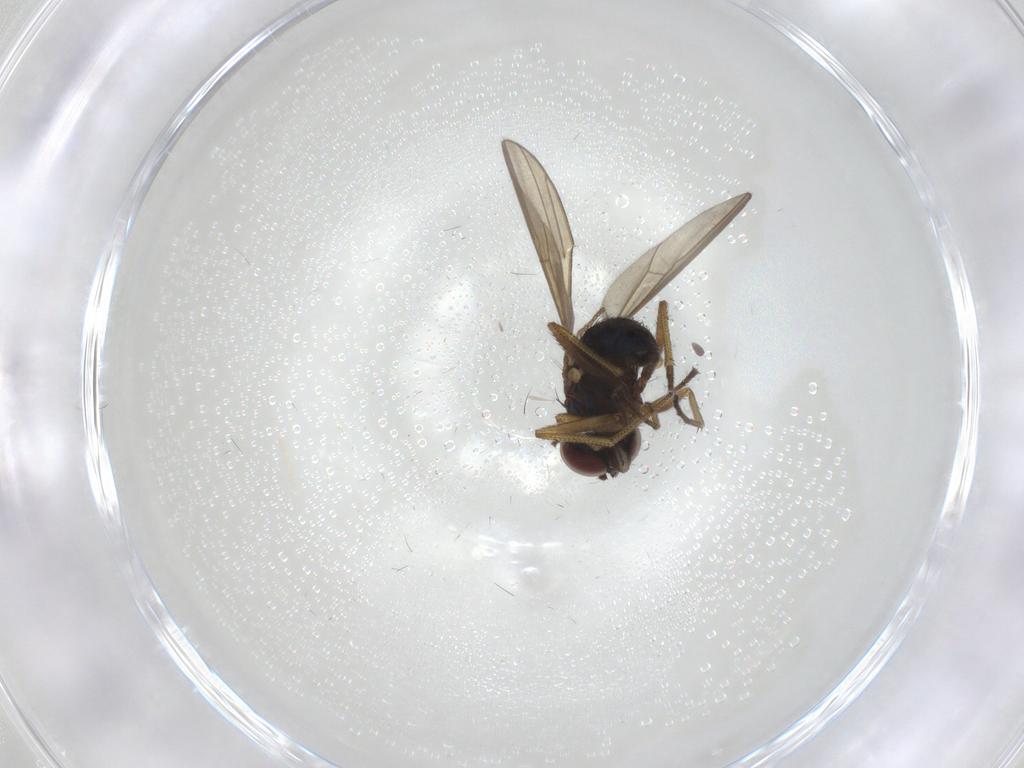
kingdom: Animalia
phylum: Arthropoda
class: Insecta
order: Diptera
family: Dolichopodidae
